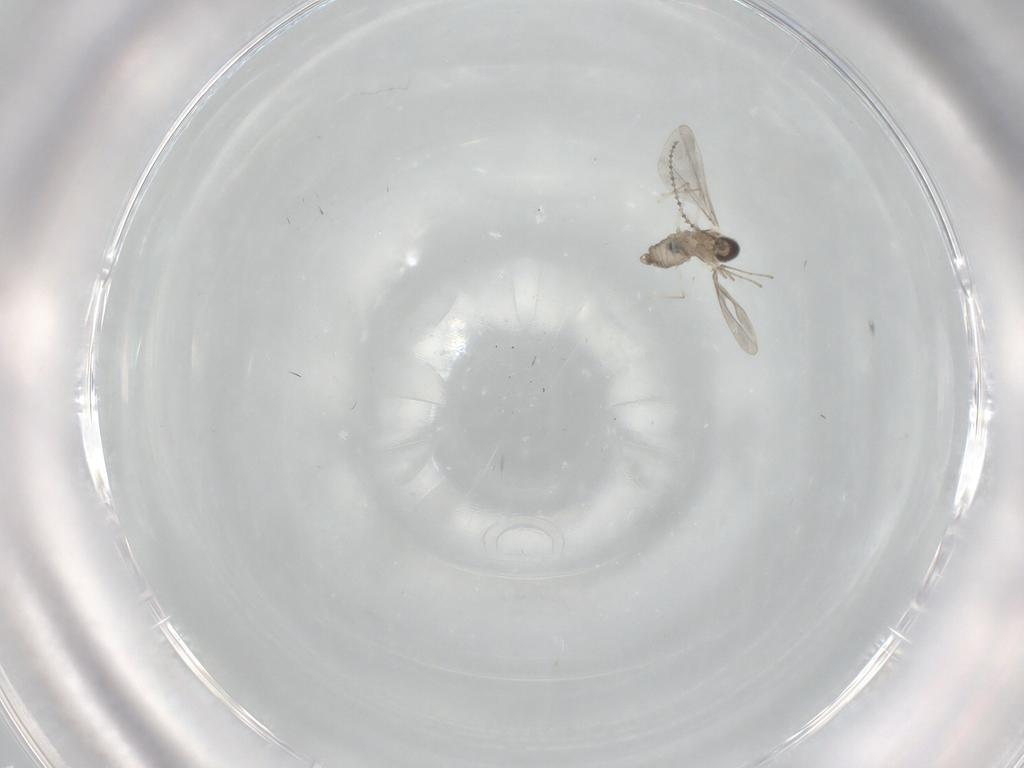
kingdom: Animalia
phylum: Arthropoda
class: Insecta
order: Diptera
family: Cecidomyiidae
